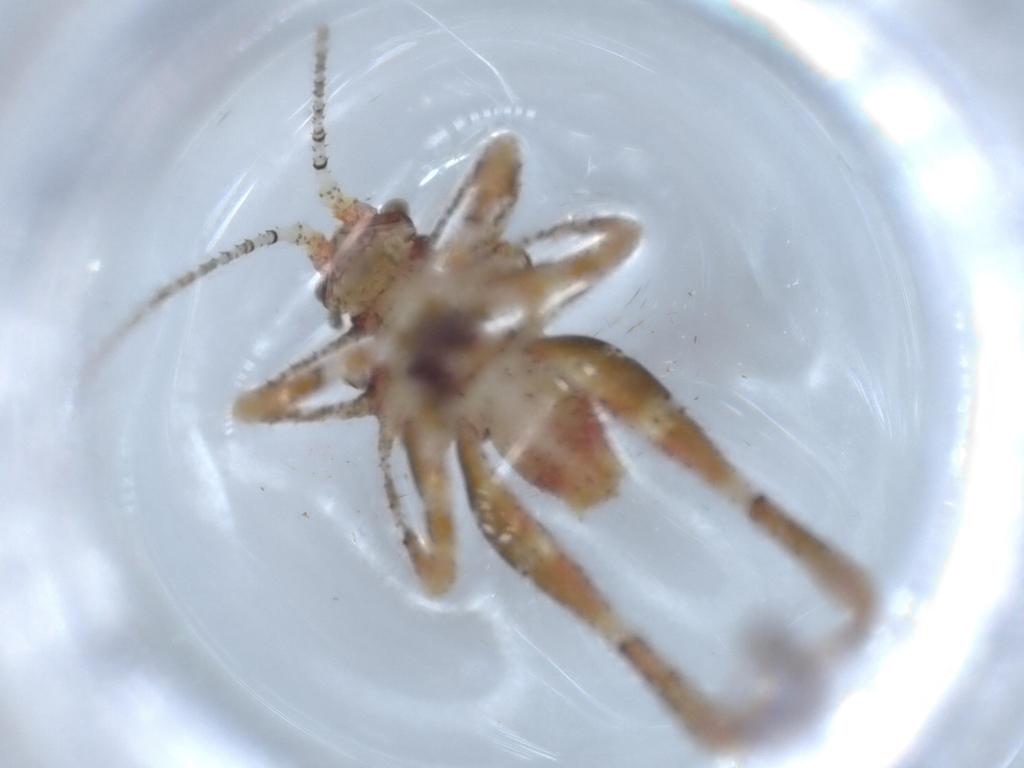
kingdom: Animalia
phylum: Arthropoda
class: Insecta
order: Orthoptera
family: Tettigoniidae
